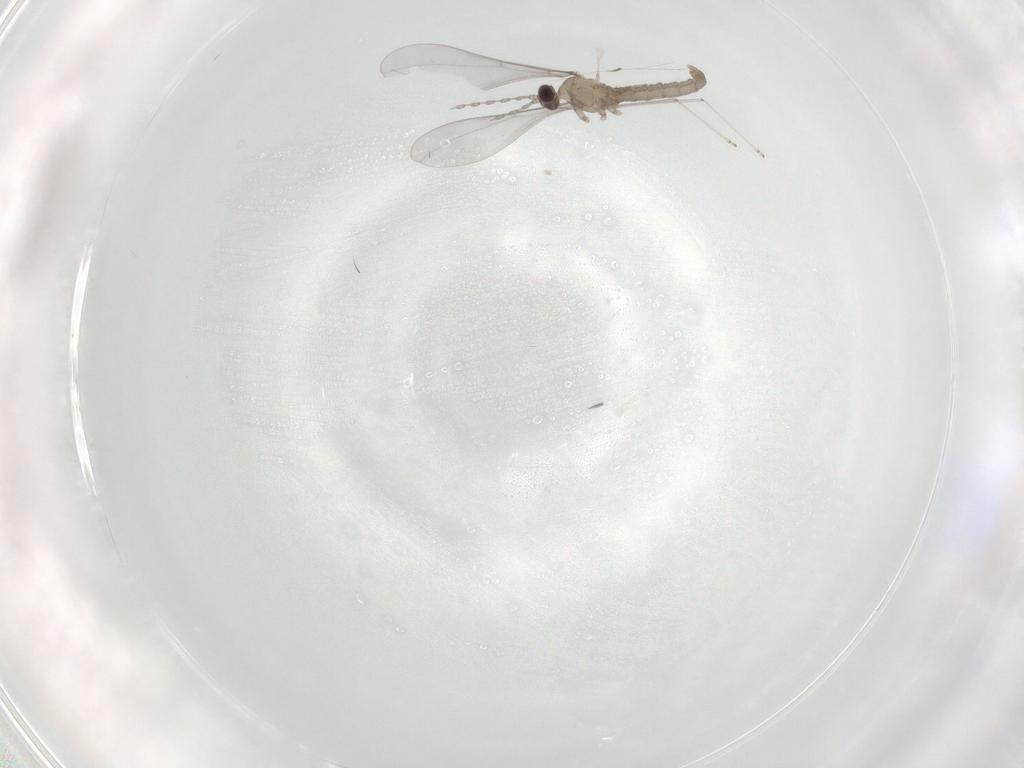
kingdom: Animalia
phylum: Arthropoda
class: Insecta
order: Diptera
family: Cecidomyiidae
